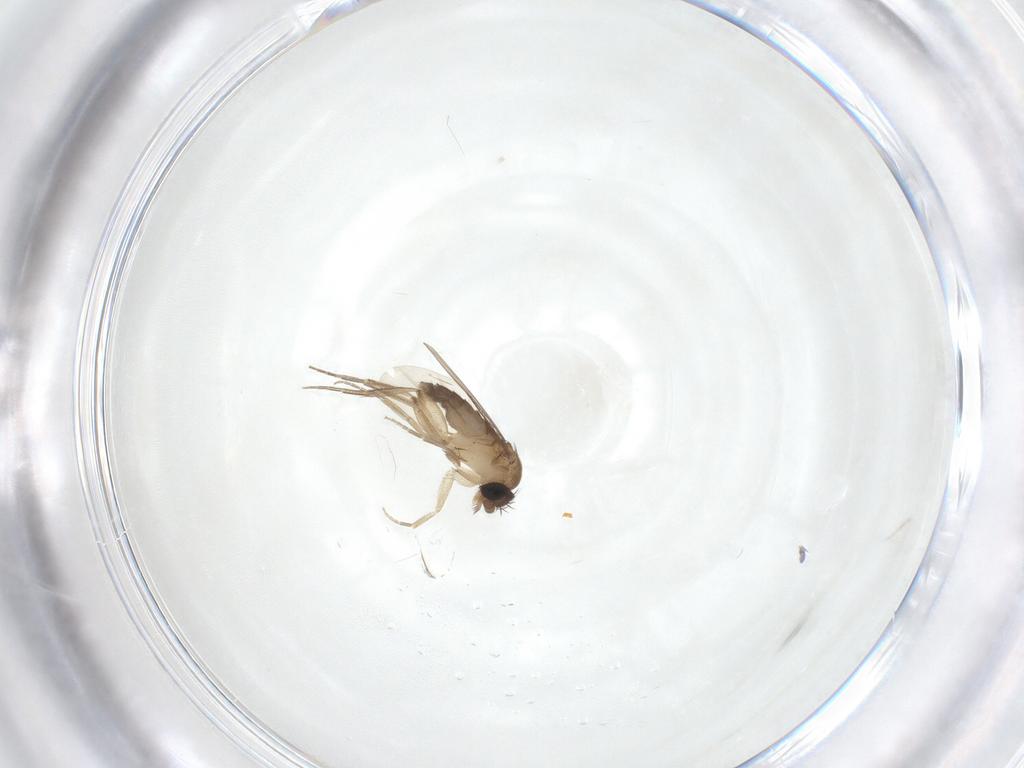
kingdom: Animalia
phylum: Arthropoda
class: Insecta
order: Diptera
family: Phoridae
